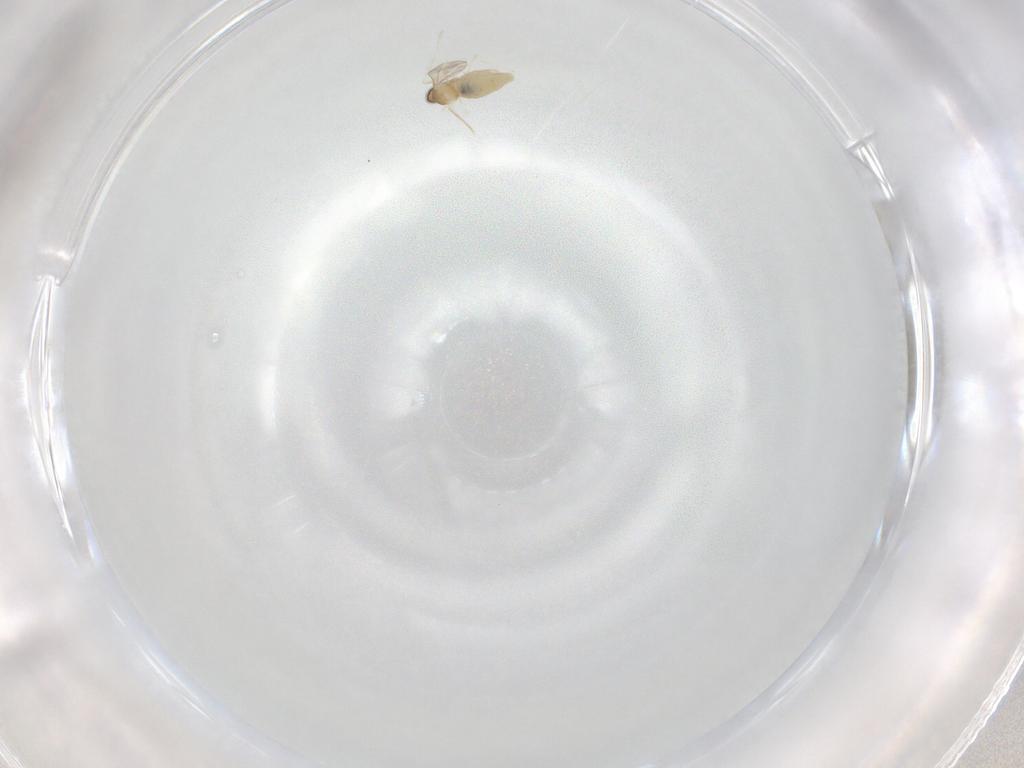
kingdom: Animalia
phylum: Arthropoda
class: Insecta
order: Diptera
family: Cecidomyiidae
